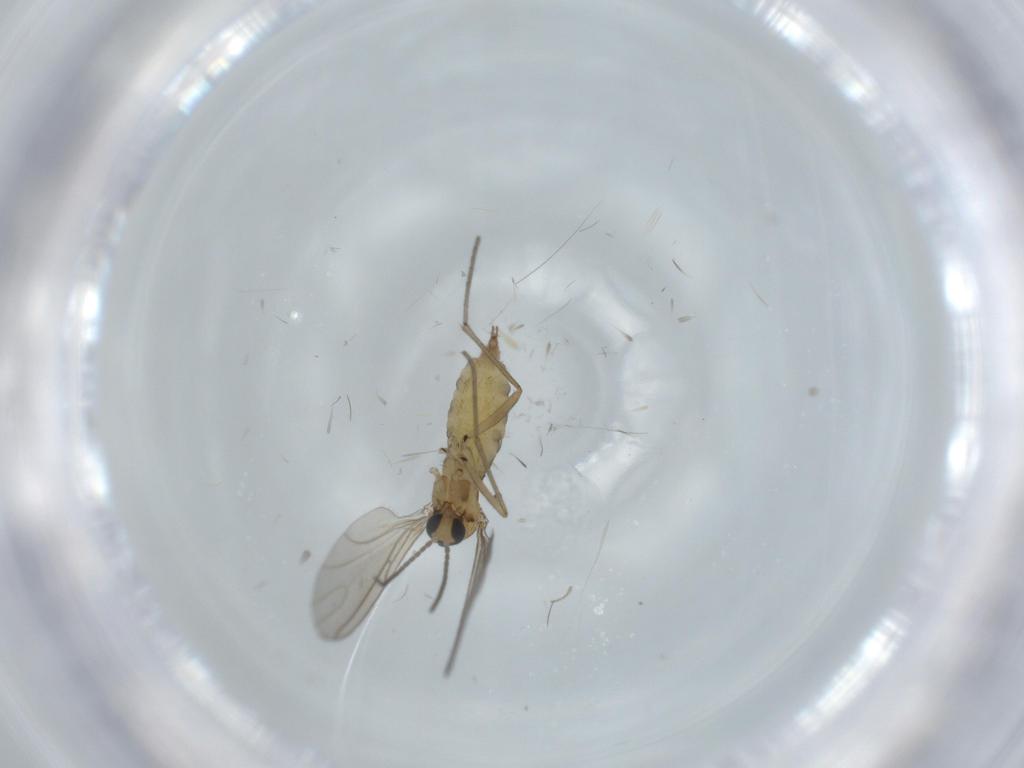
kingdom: Animalia
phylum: Arthropoda
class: Insecta
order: Diptera
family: Sciaridae
